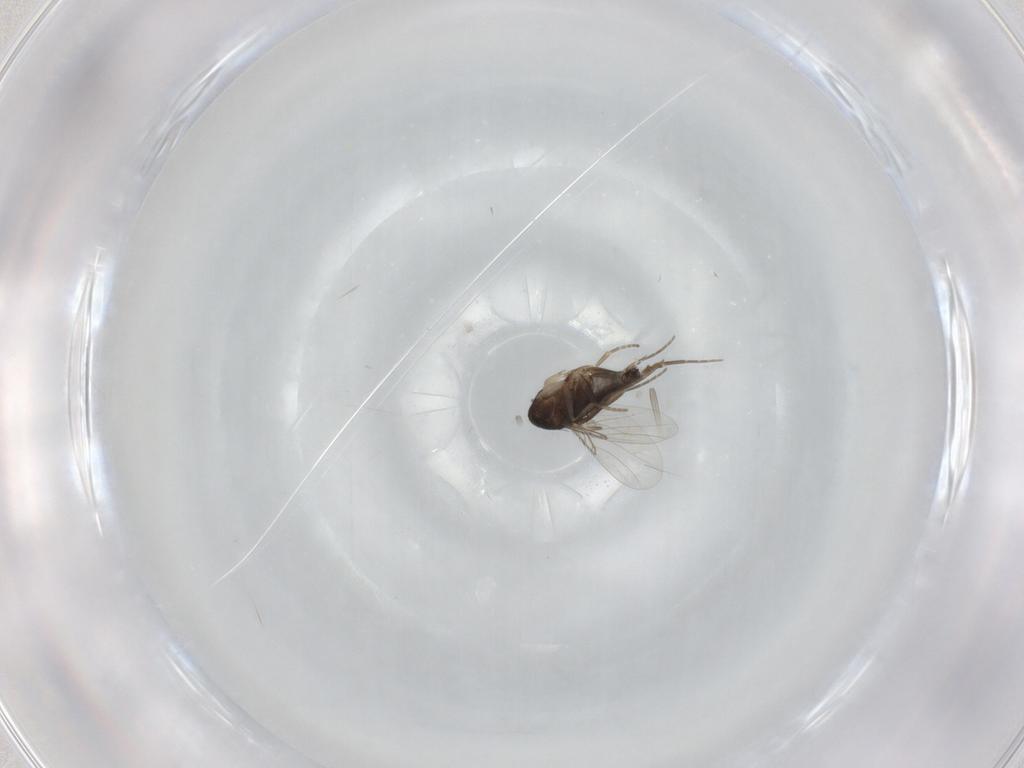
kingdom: Animalia
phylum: Arthropoda
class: Insecta
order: Diptera
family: Phoridae
